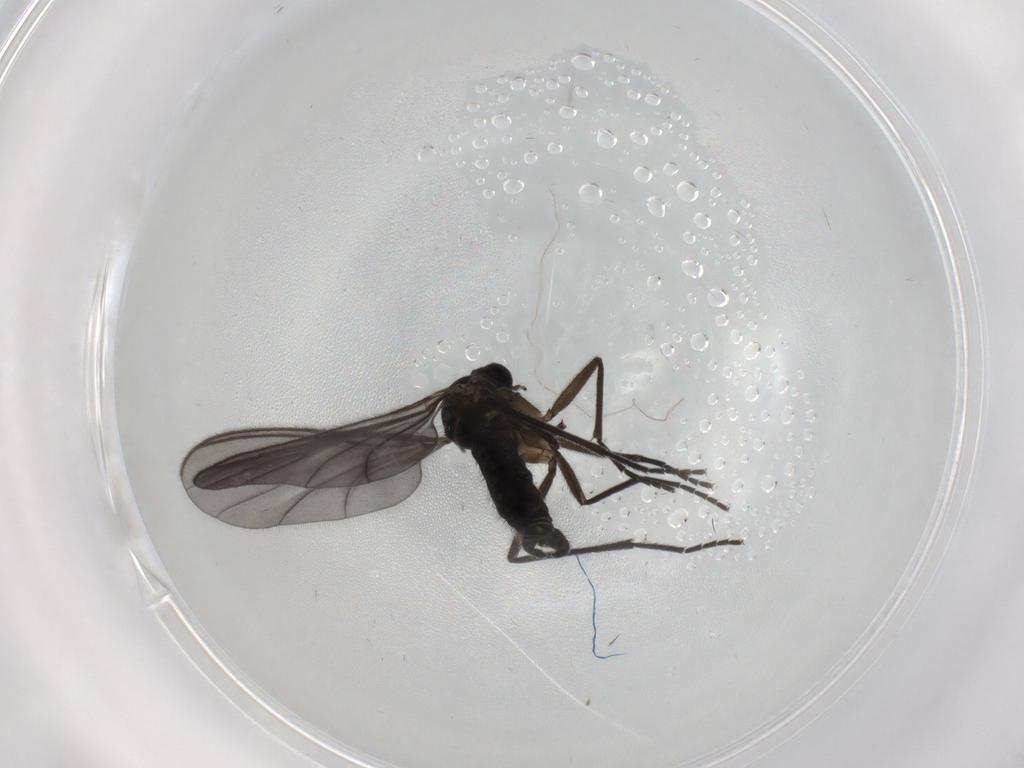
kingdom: Animalia
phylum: Arthropoda
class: Insecta
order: Diptera
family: Sciaridae
